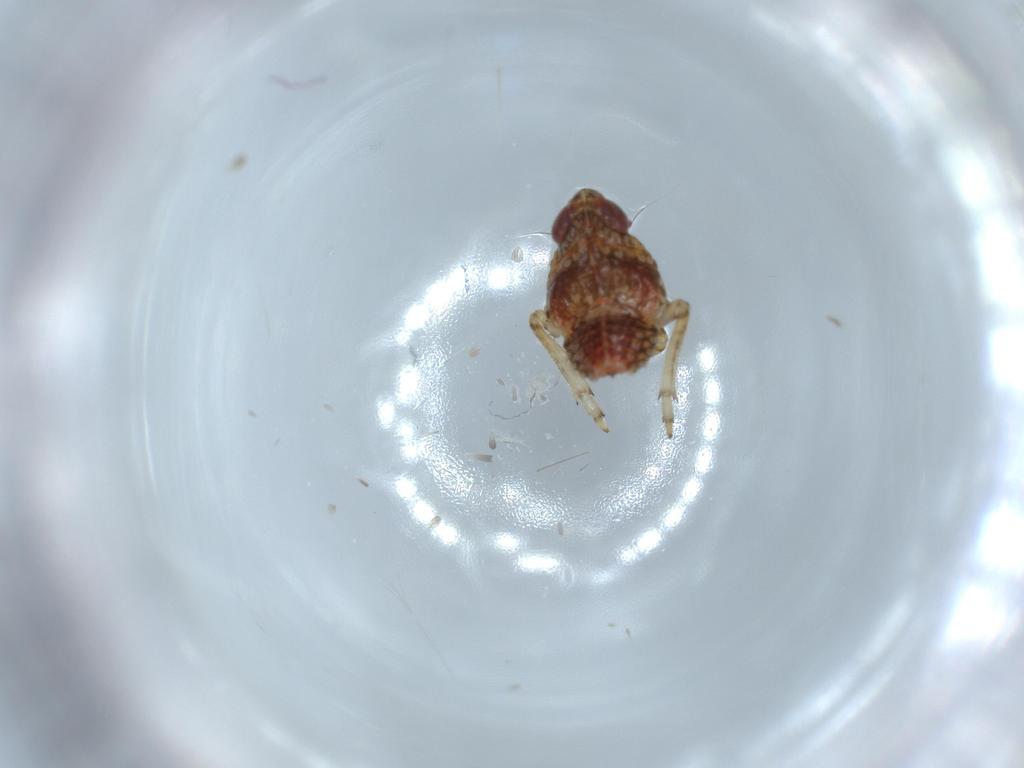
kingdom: Animalia
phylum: Arthropoda
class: Insecta
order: Hemiptera
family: Issidae
